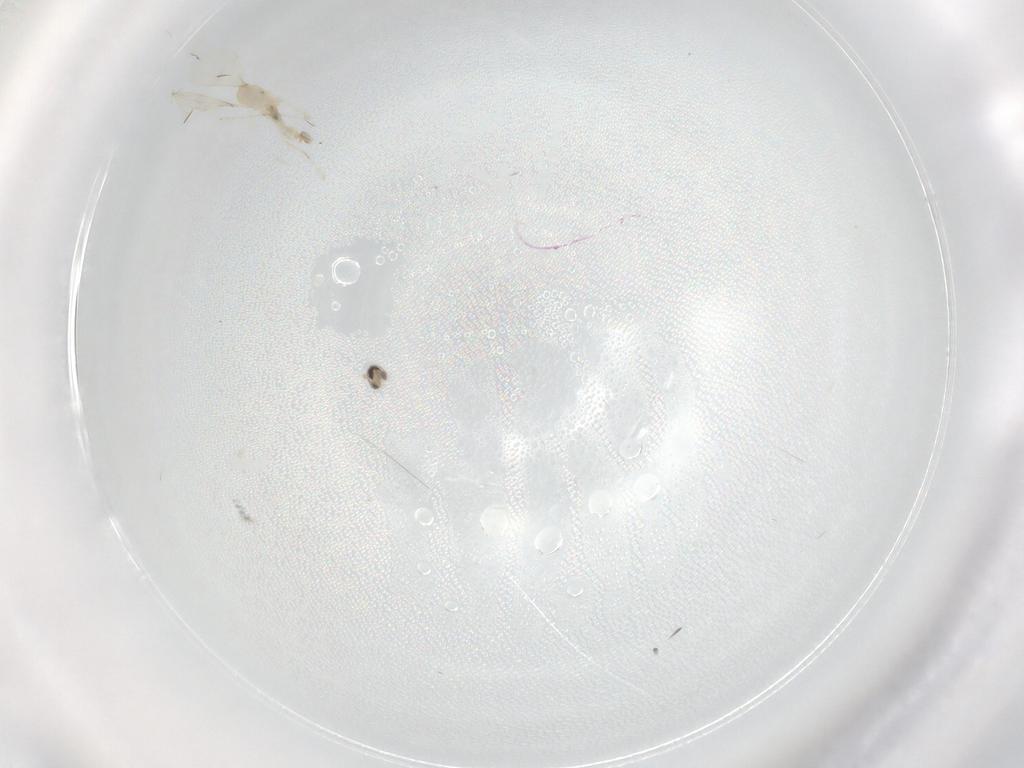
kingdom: Animalia
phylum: Arthropoda
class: Insecta
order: Diptera
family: Cecidomyiidae
